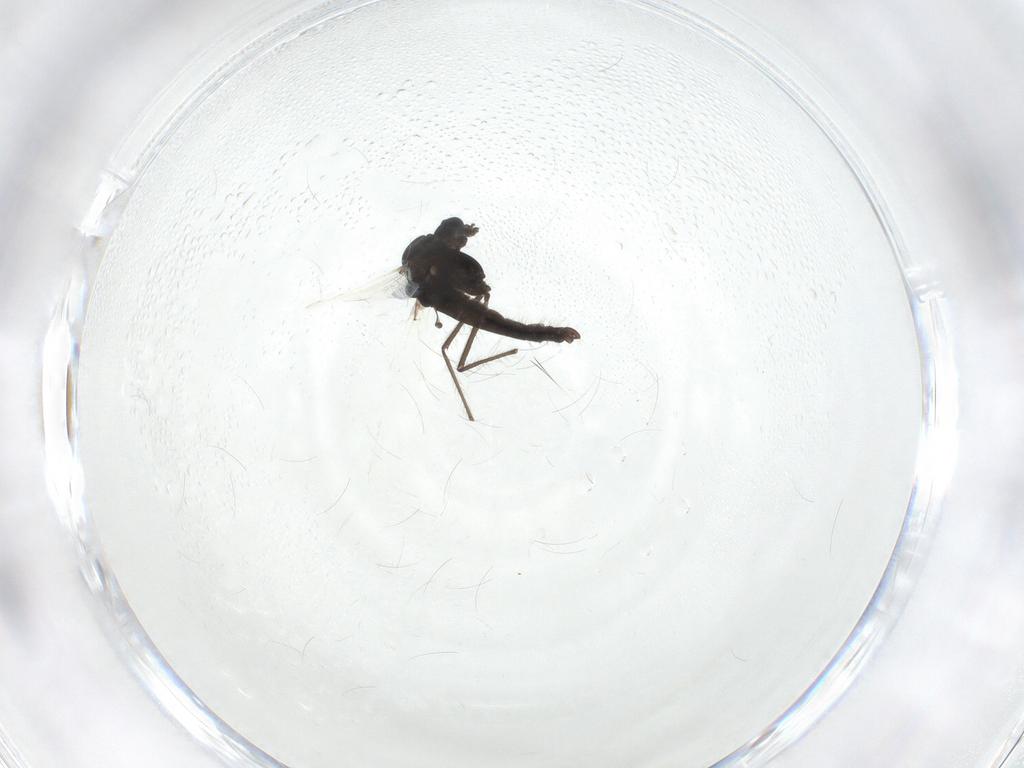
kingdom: Animalia
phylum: Arthropoda
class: Insecta
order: Diptera
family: Chironomidae
